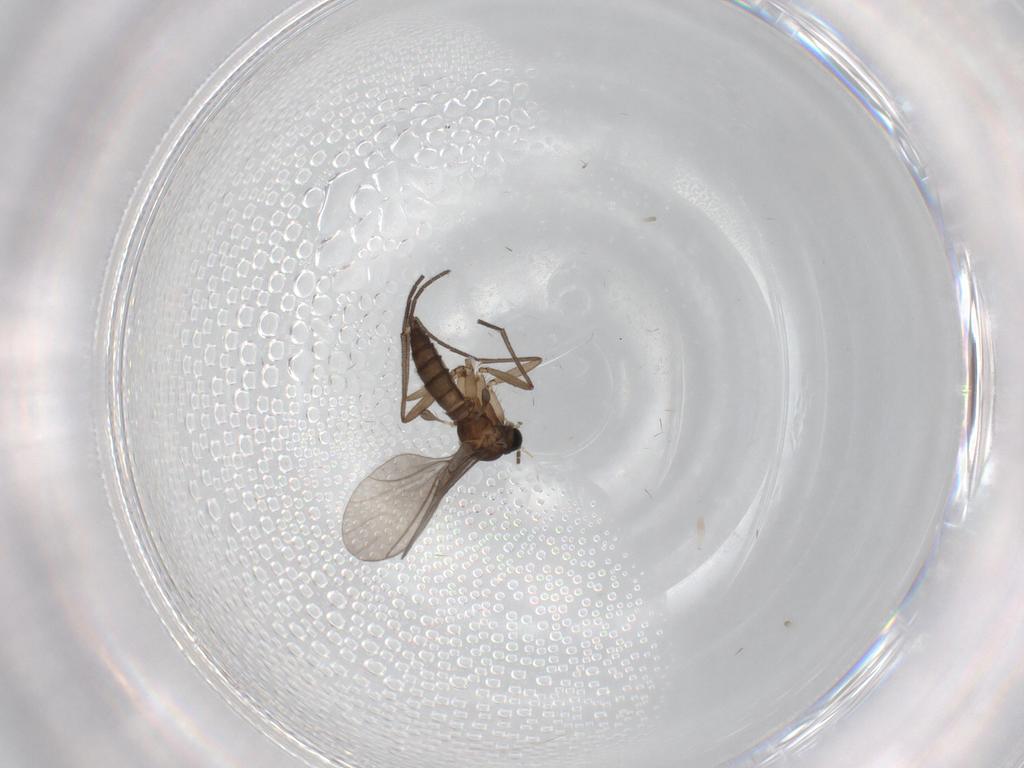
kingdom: Animalia
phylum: Arthropoda
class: Insecta
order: Diptera
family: Sciaridae
